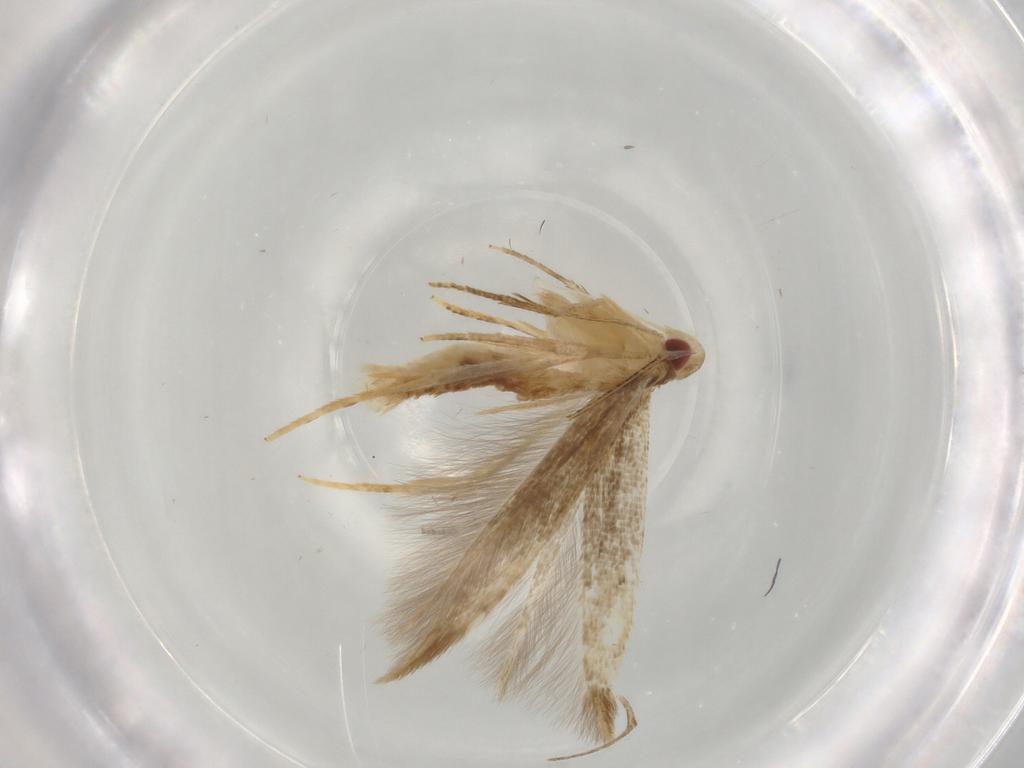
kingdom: Animalia
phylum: Arthropoda
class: Insecta
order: Lepidoptera
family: Gelechiidae
